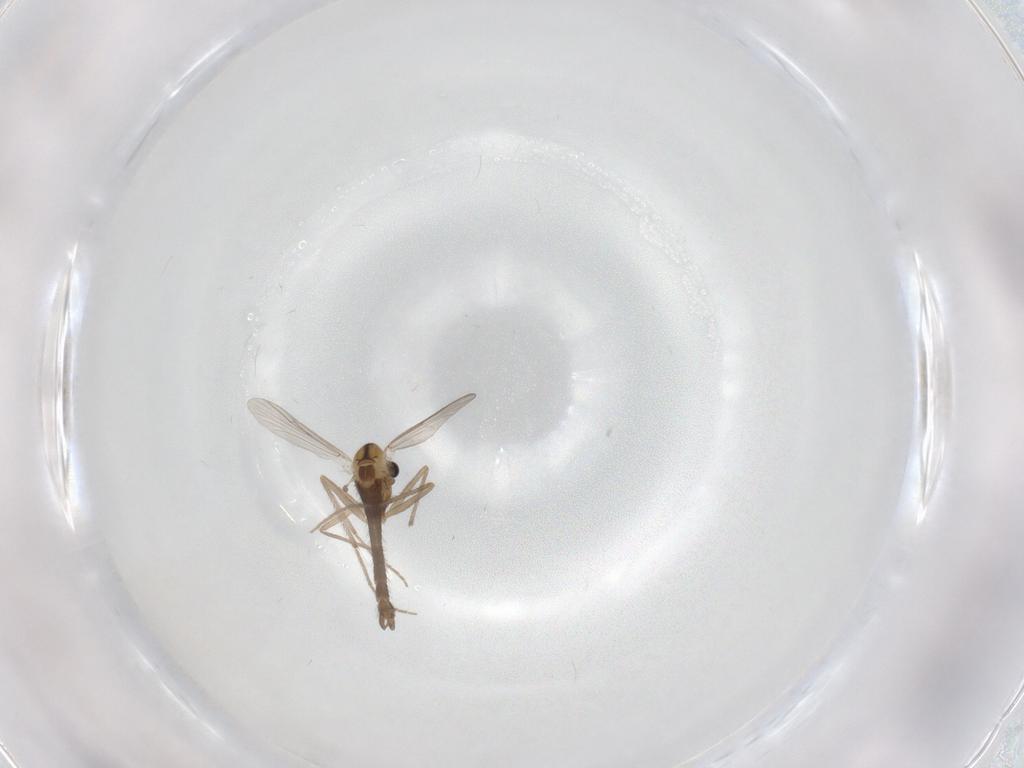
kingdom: Animalia
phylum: Arthropoda
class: Insecta
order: Diptera
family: Chironomidae
